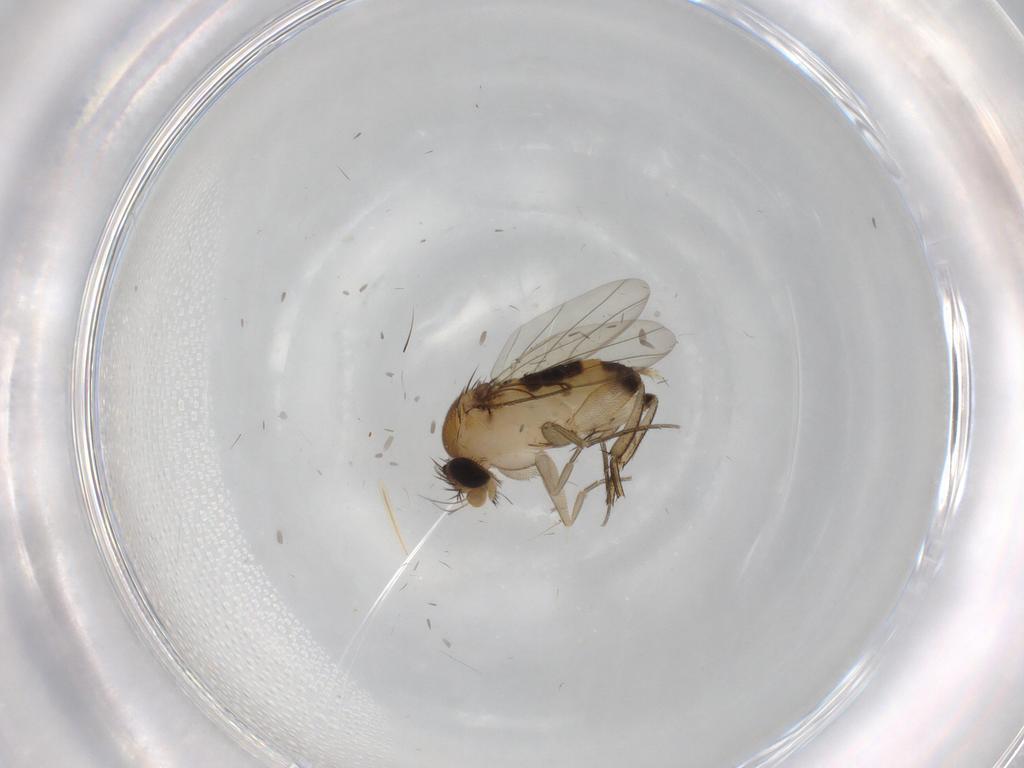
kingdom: Animalia
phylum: Arthropoda
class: Insecta
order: Diptera
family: Phoridae
